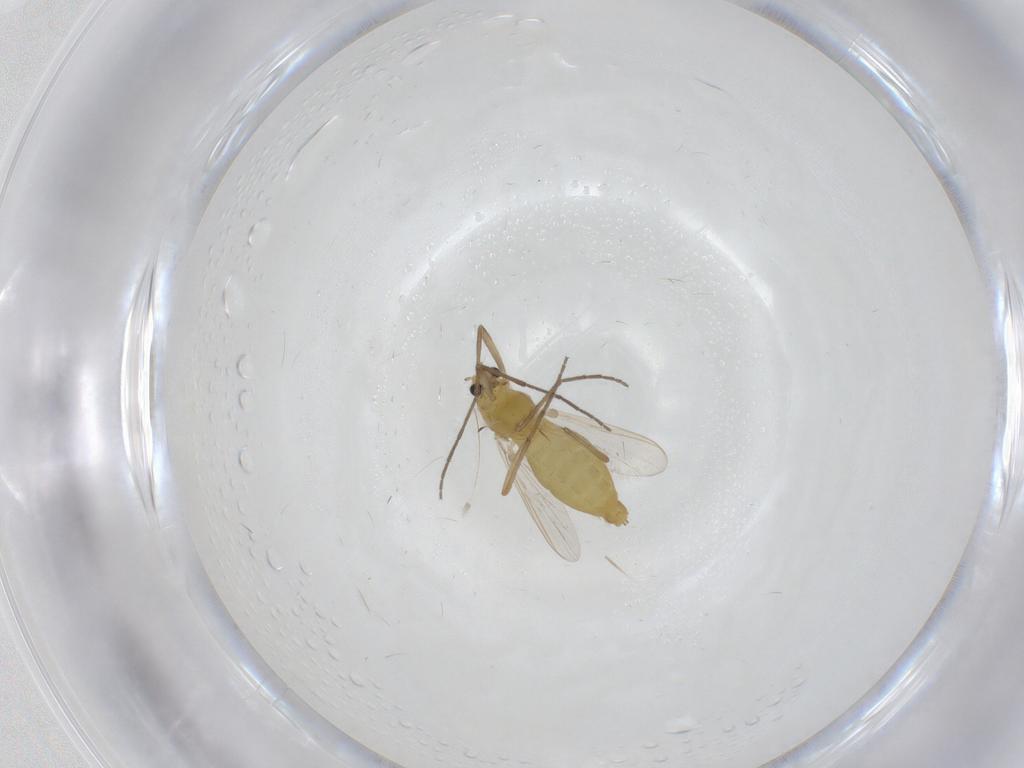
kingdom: Animalia
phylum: Arthropoda
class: Insecta
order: Diptera
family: Chironomidae
